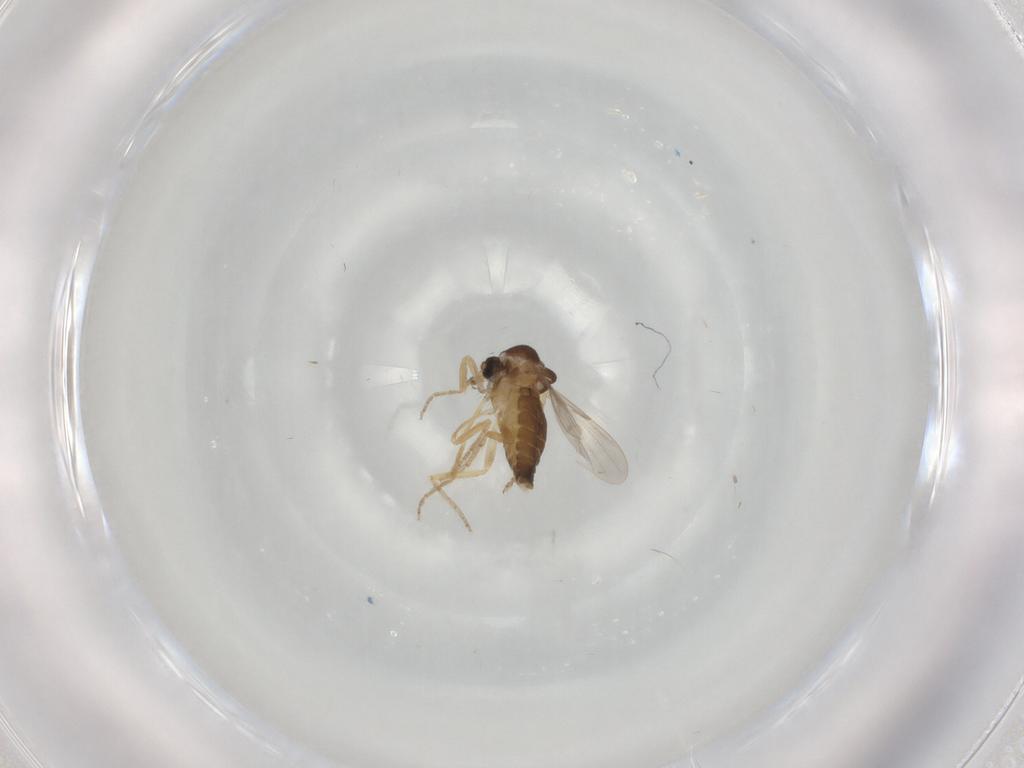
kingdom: Animalia
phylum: Arthropoda
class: Insecta
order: Diptera
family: Ceratopogonidae
